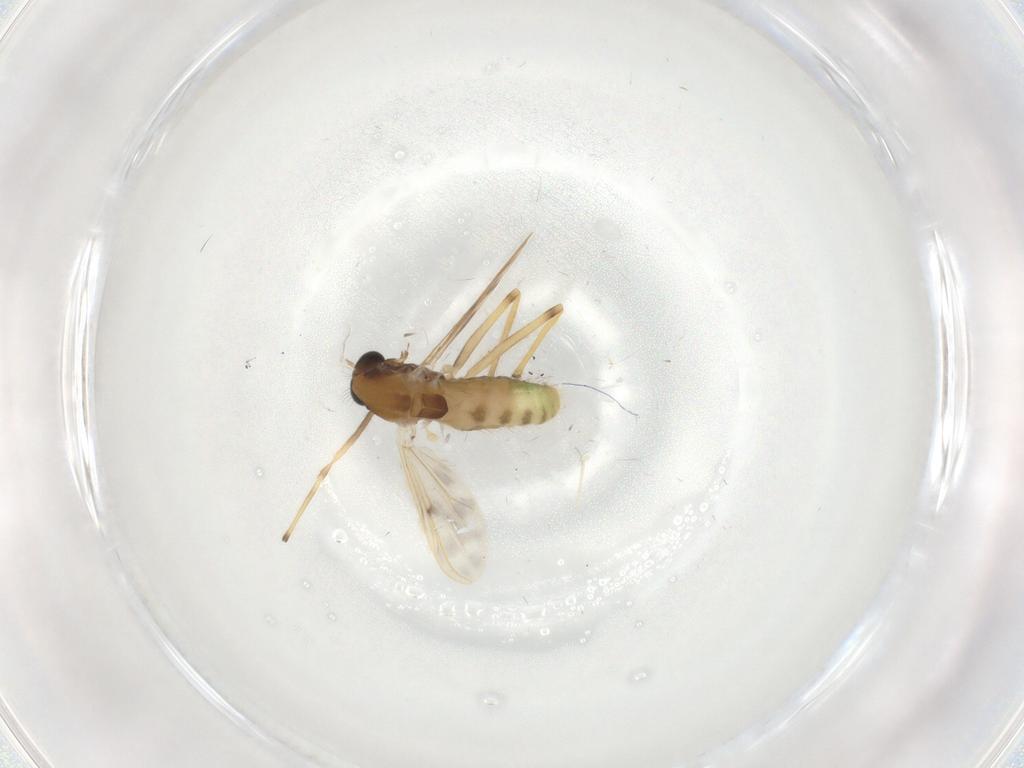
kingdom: Animalia
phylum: Arthropoda
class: Insecta
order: Diptera
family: Chironomidae
